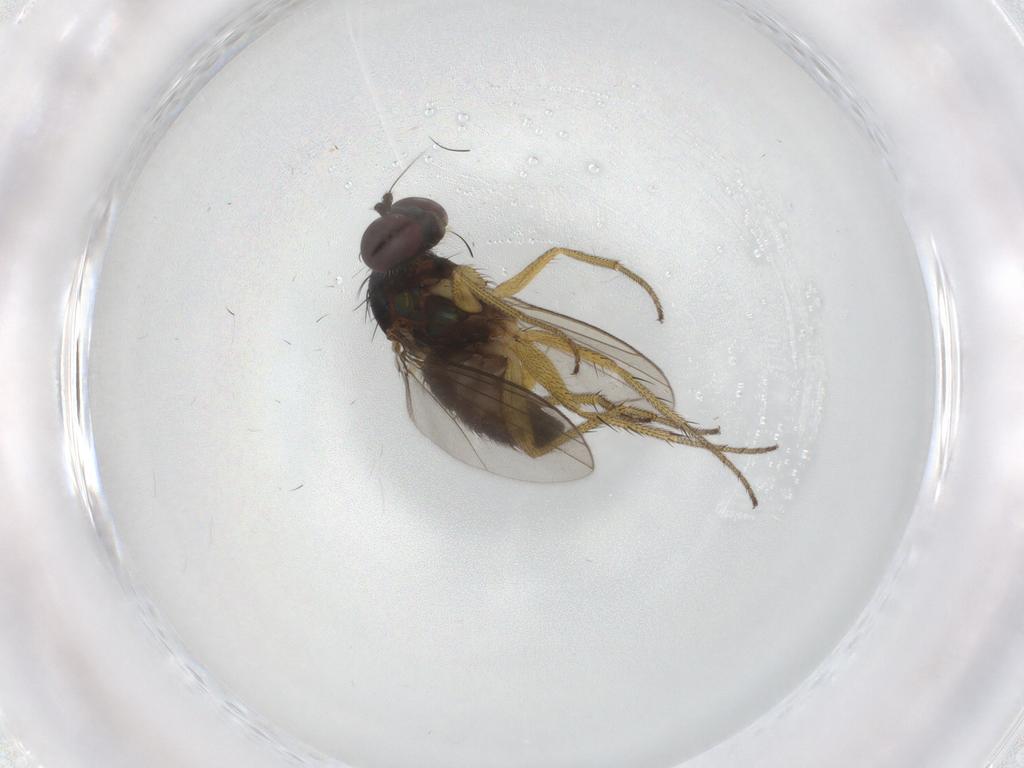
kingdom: Animalia
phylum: Arthropoda
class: Insecta
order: Diptera
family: Chironomidae
